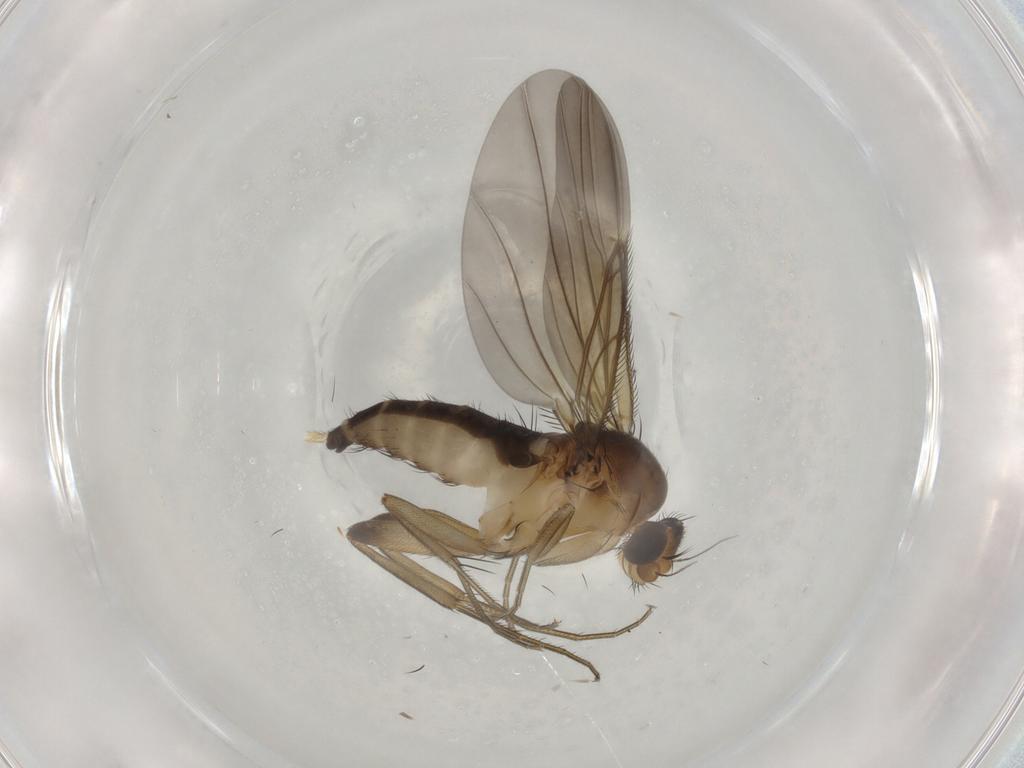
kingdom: Animalia
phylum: Arthropoda
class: Insecta
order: Diptera
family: Phoridae
